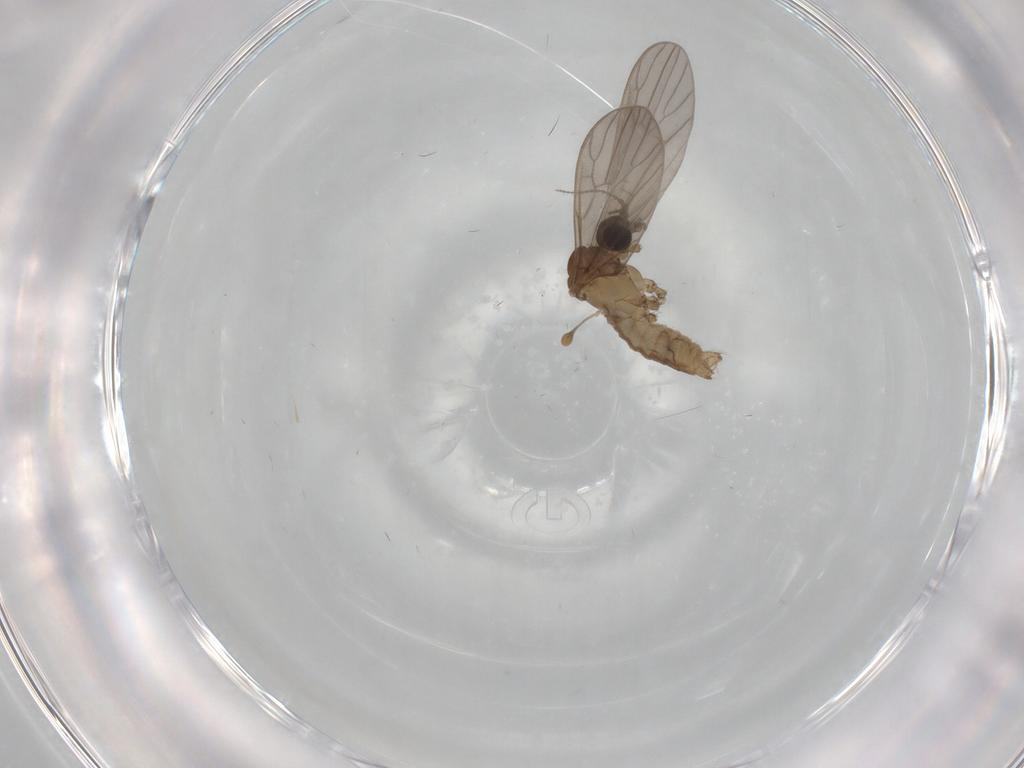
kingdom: Animalia
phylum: Arthropoda
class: Insecta
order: Diptera
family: Limoniidae
